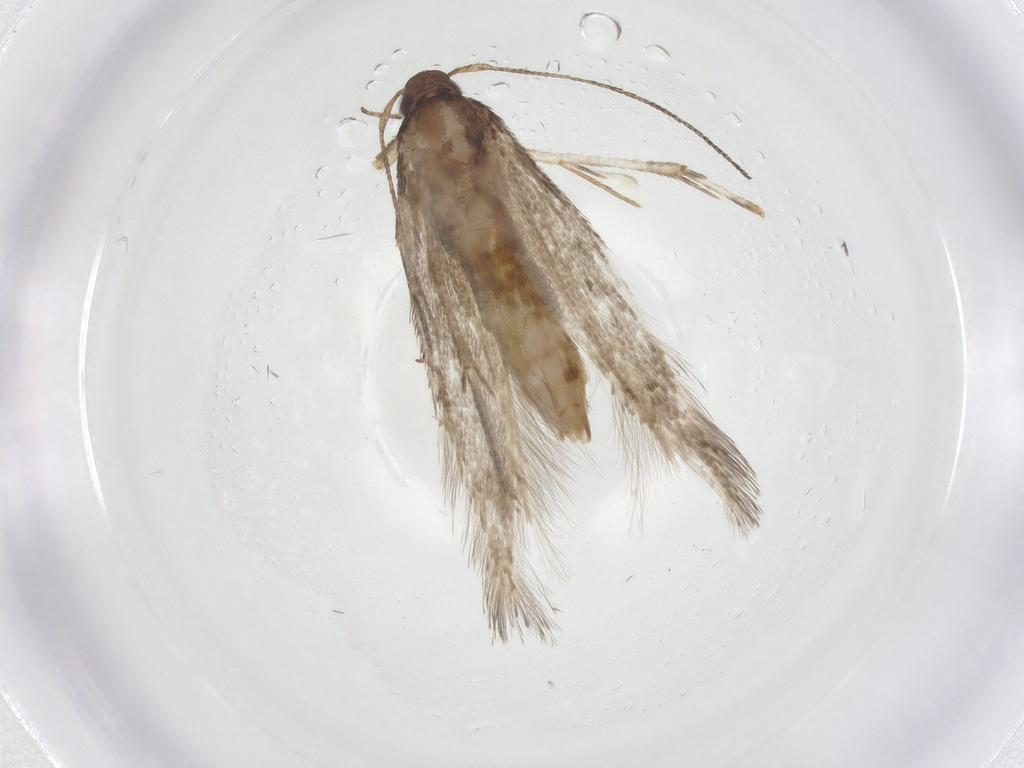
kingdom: Animalia
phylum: Arthropoda
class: Insecta
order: Lepidoptera
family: Cosmopterigidae
